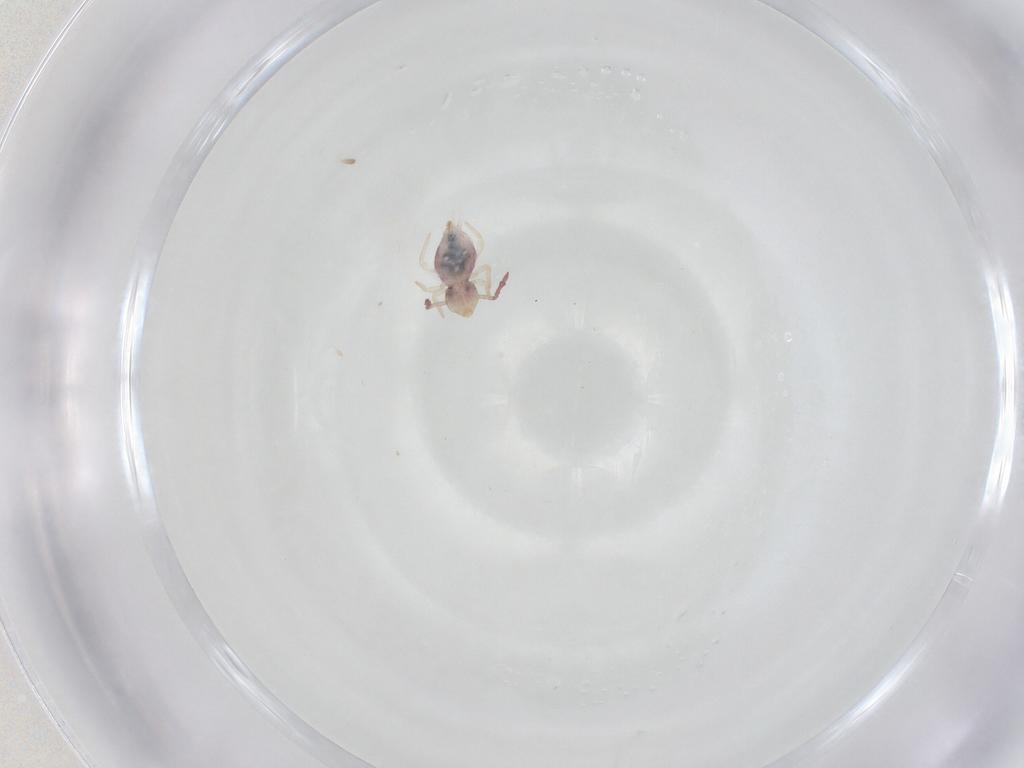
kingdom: Animalia
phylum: Arthropoda
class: Collembola
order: Symphypleona
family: Dicyrtomidae
